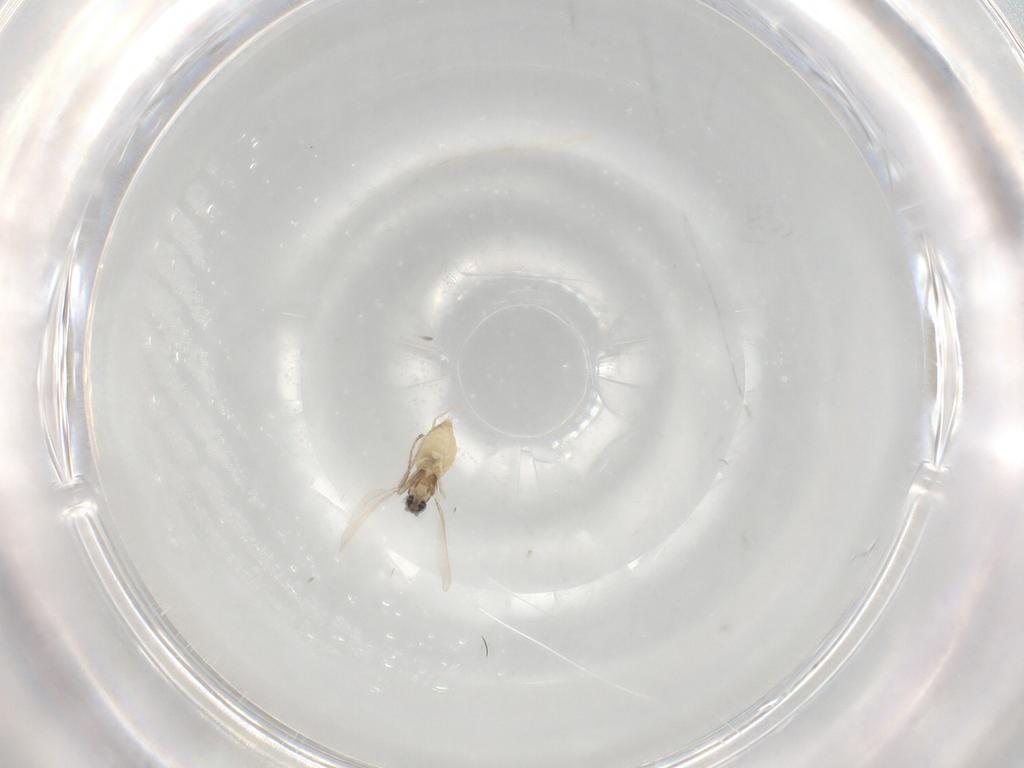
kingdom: Animalia
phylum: Arthropoda
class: Insecta
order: Diptera
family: Cecidomyiidae
